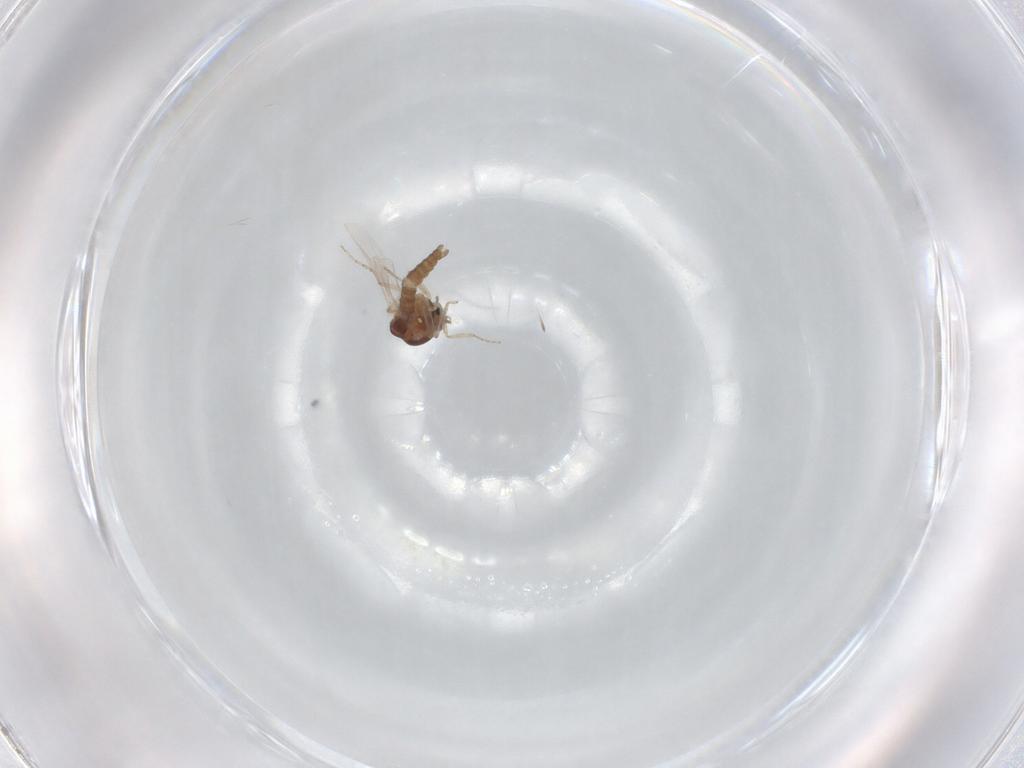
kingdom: Animalia
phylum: Arthropoda
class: Insecta
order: Diptera
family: Ceratopogonidae
